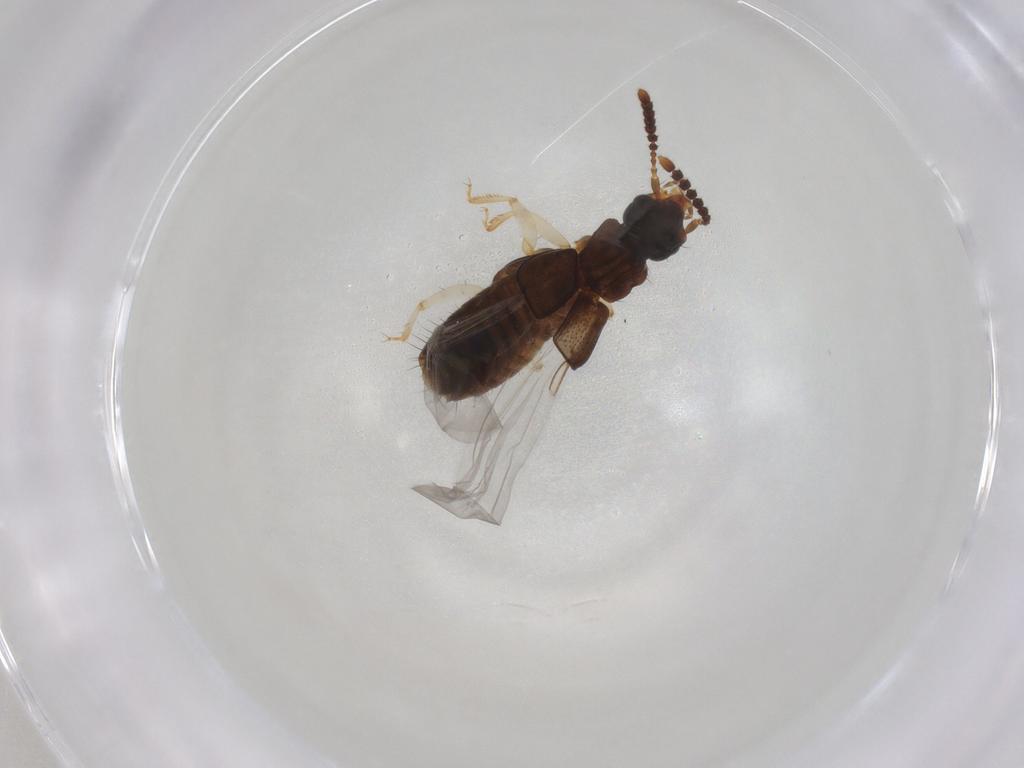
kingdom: Animalia
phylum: Arthropoda
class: Insecta
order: Coleoptera
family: Staphylinidae
